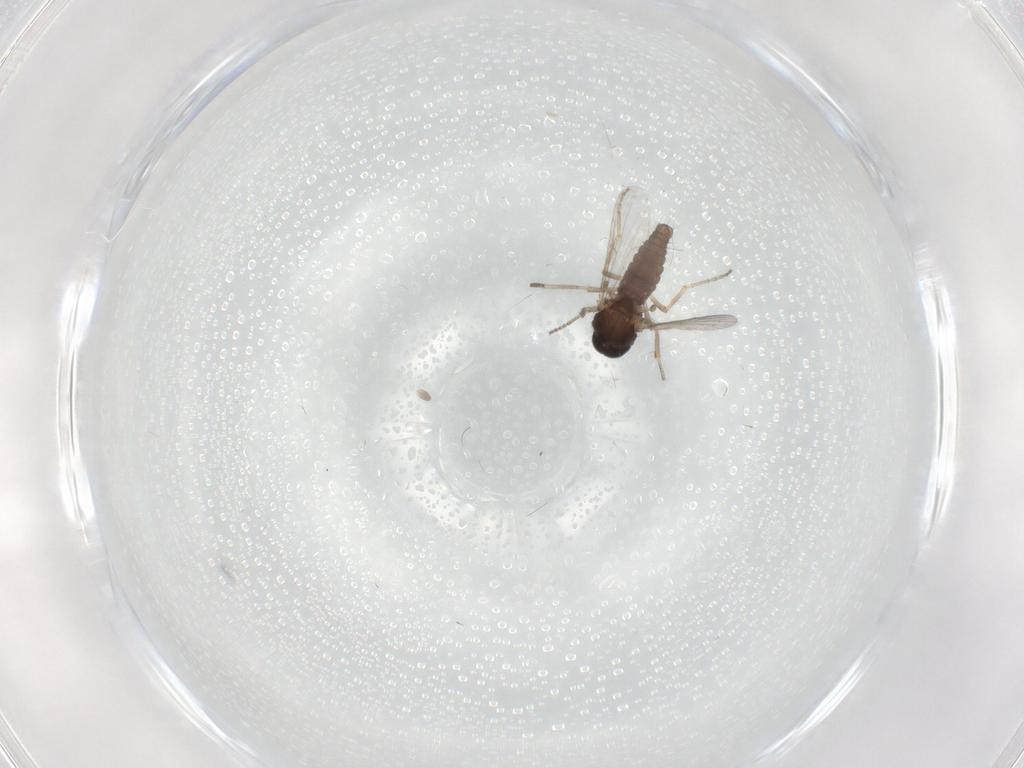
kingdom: Animalia
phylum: Arthropoda
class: Insecta
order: Diptera
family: Ceratopogonidae
